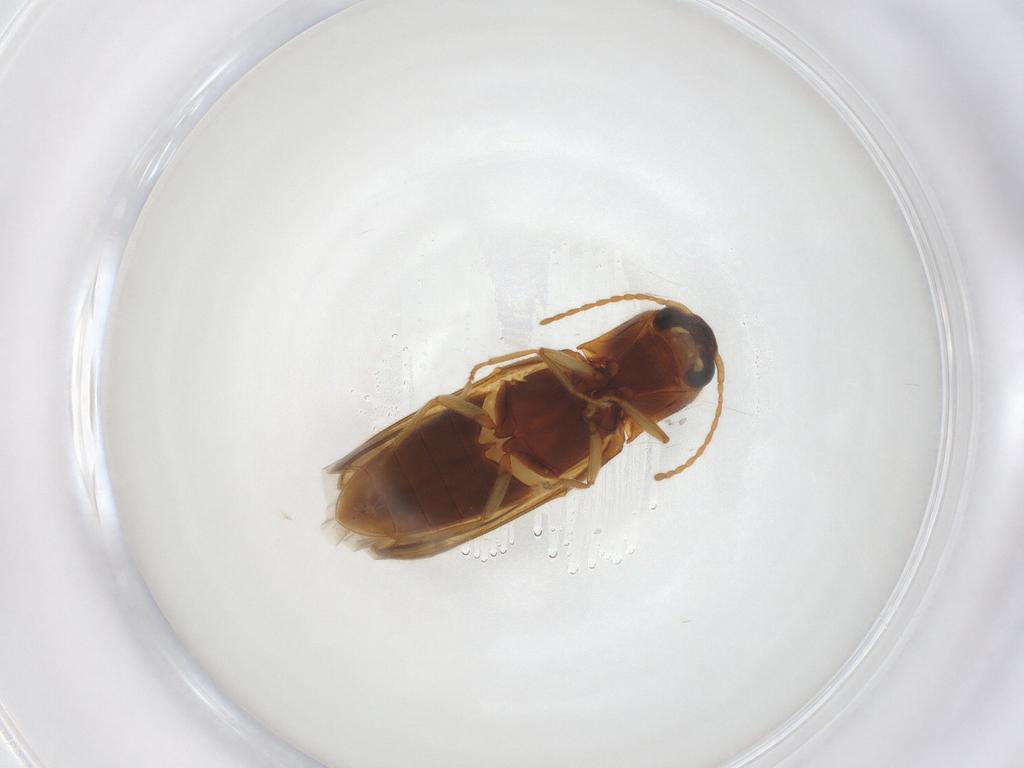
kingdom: Animalia
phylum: Arthropoda
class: Insecta
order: Coleoptera
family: Elateridae
